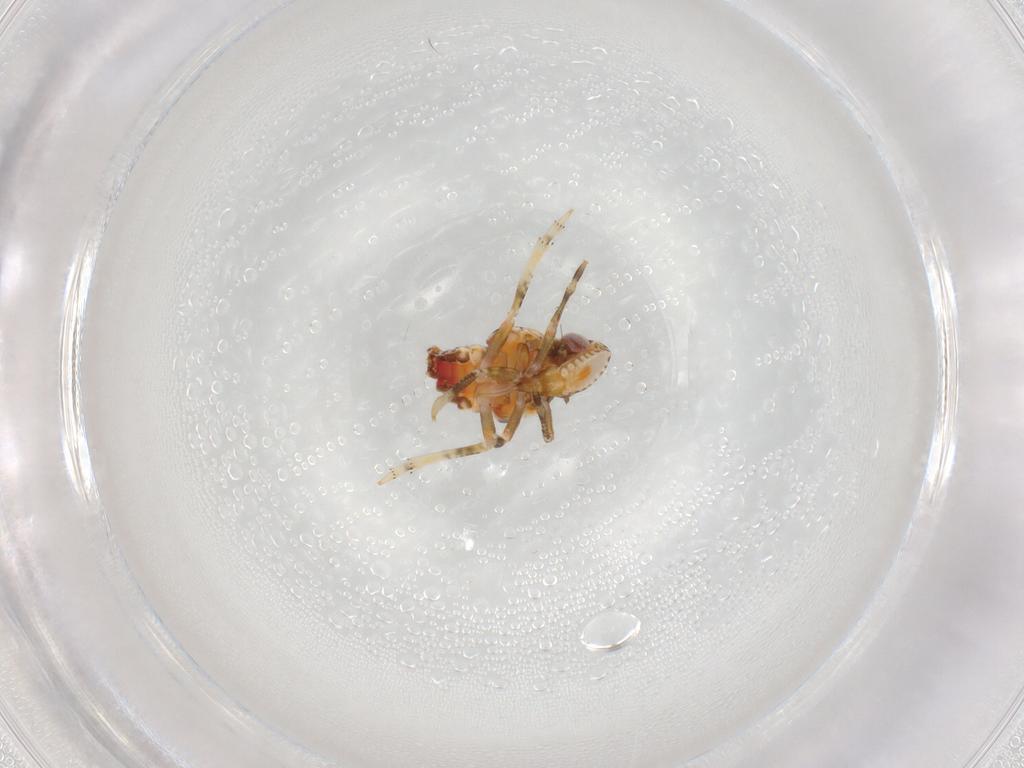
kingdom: Animalia
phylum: Arthropoda
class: Insecta
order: Hemiptera
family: Tropiduchidae
